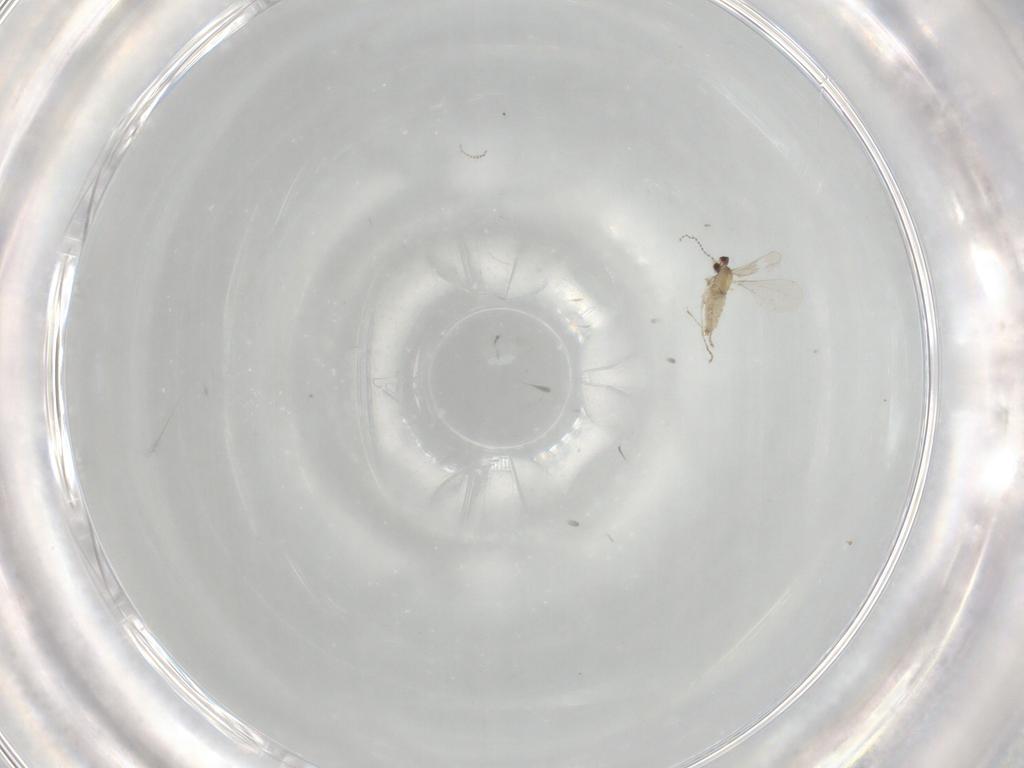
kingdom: Animalia
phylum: Arthropoda
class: Insecta
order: Diptera
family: Cecidomyiidae
